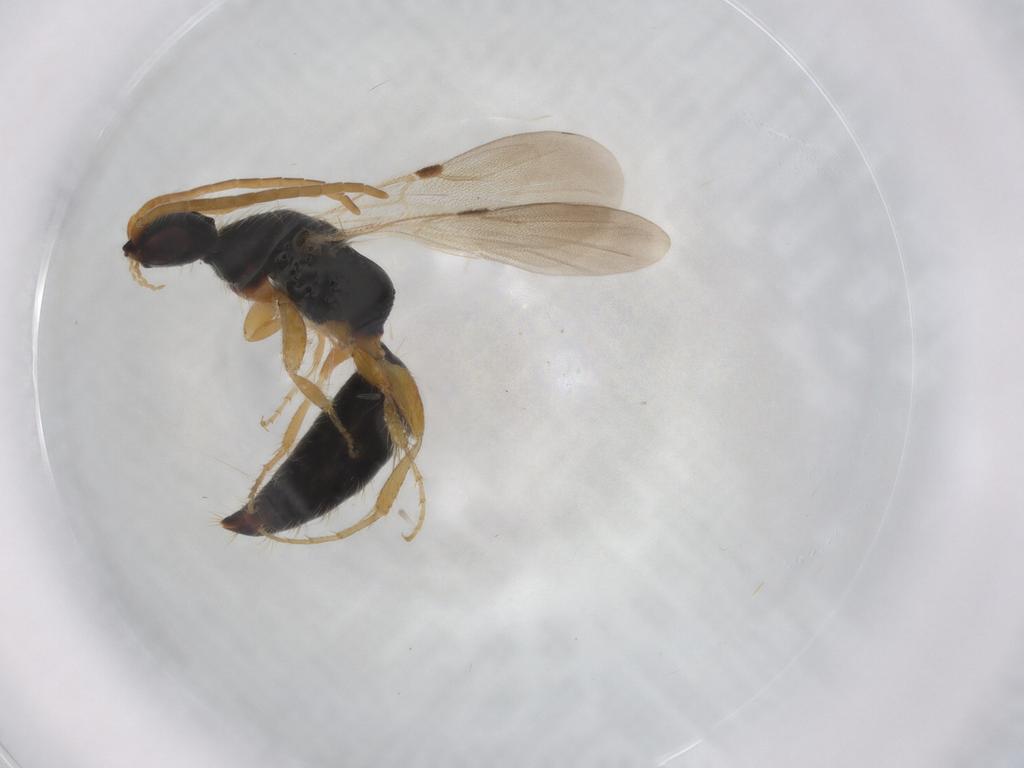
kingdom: Animalia
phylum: Arthropoda
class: Insecta
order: Hymenoptera
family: Bethylidae
